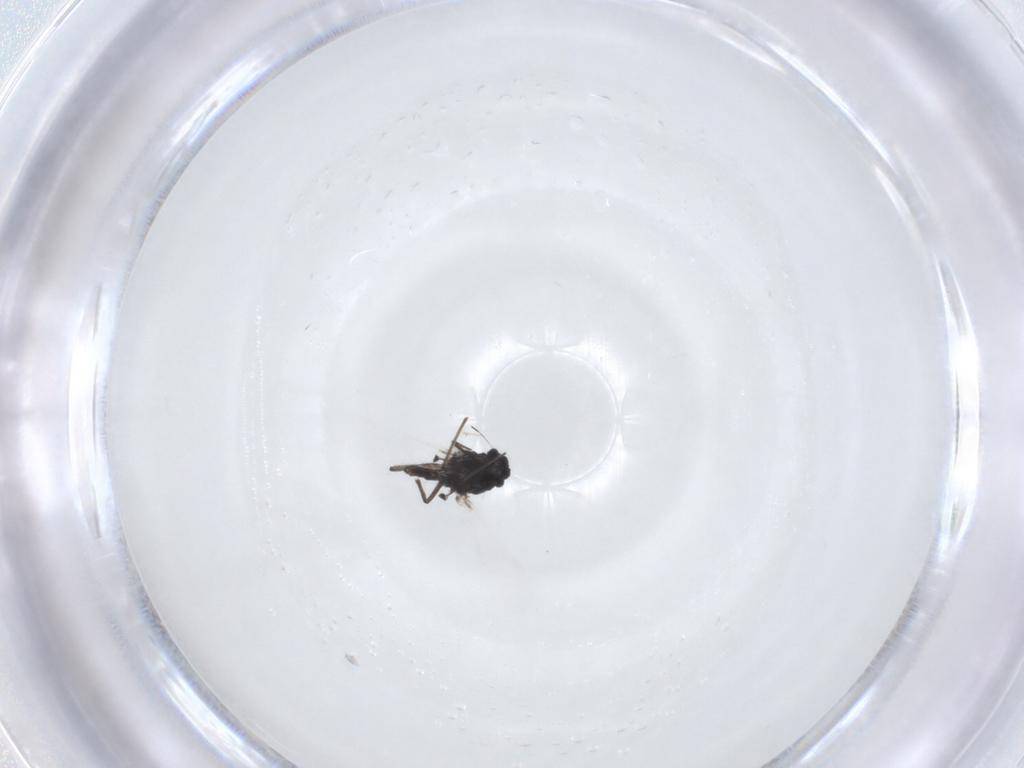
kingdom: Animalia
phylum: Arthropoda
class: Insecta
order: Diptera
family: Chironomidae
